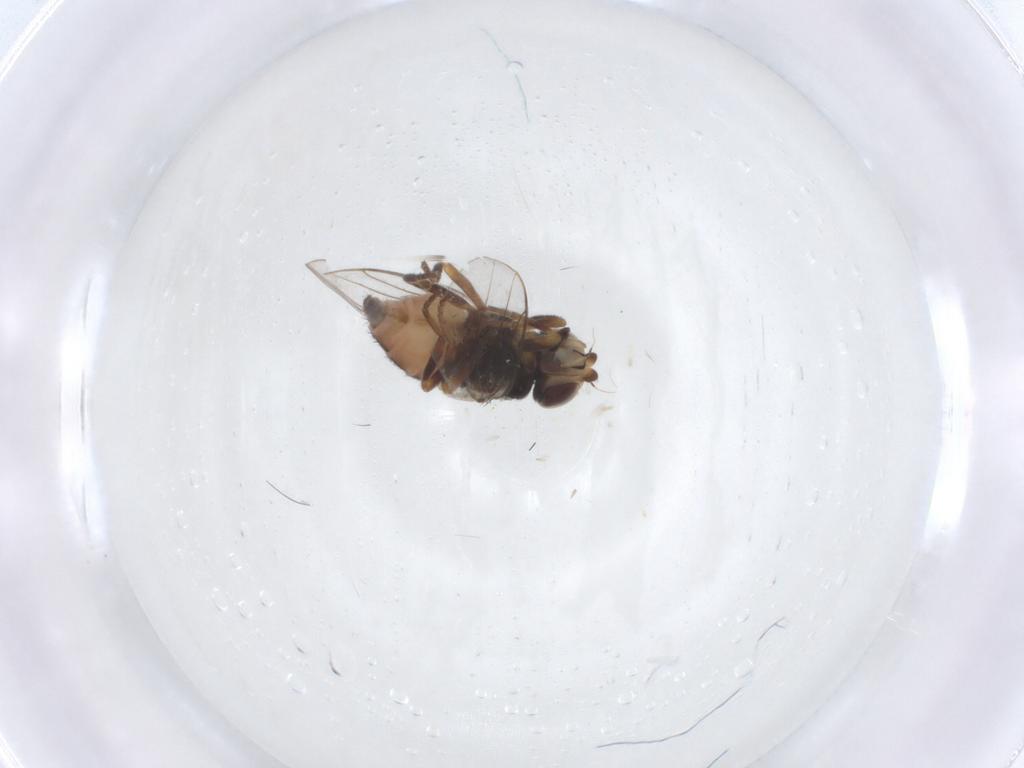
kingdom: Animalia
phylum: Arthropoda
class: Insecta
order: Diptera
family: Chloropidae
